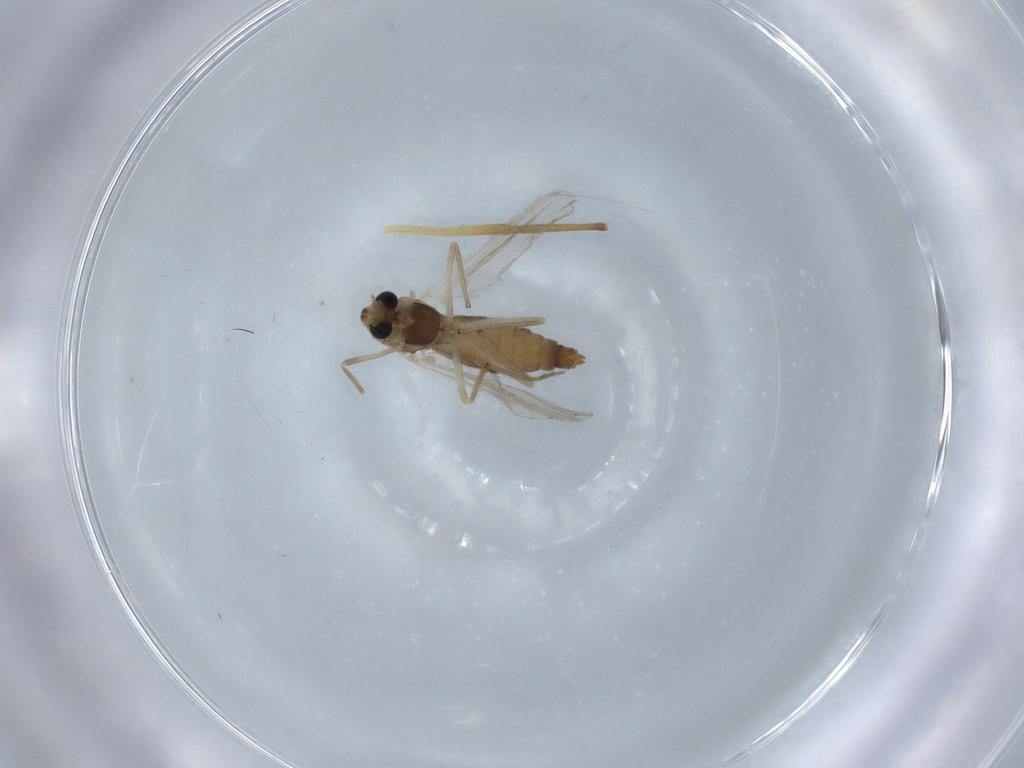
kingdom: Animalia
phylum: Arthropoda
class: Insecta
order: Diptera
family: Chironomidae
